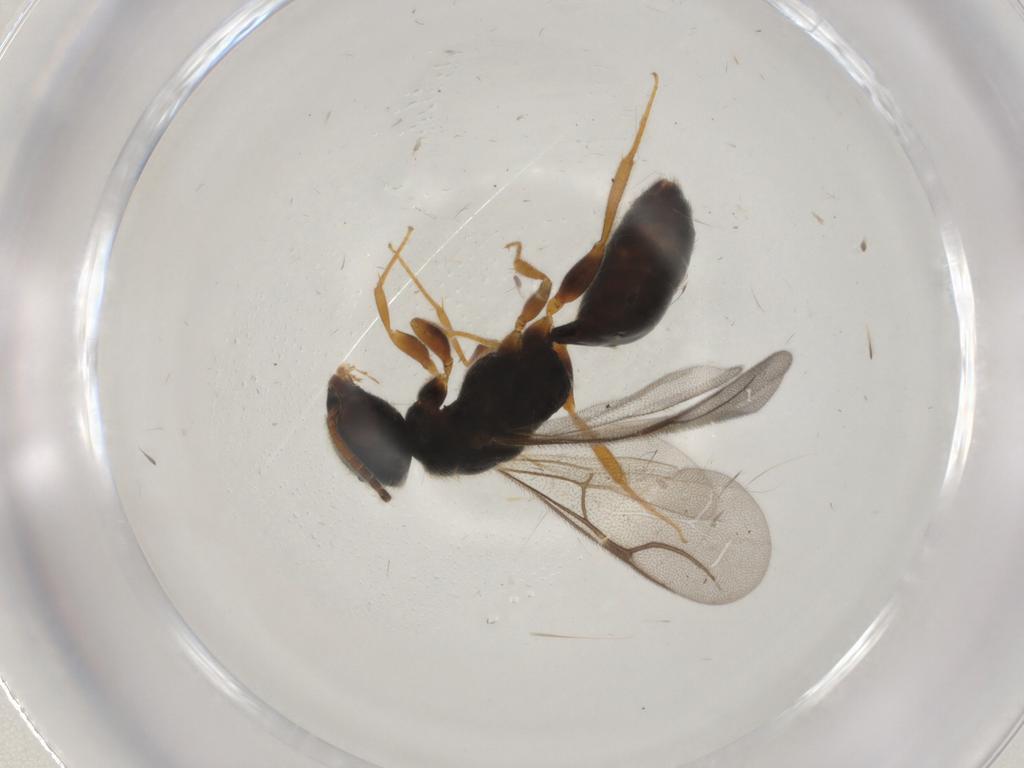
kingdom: Animalia
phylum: Arthropoda
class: Insecta
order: Hymenoptera
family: Bethylidae
